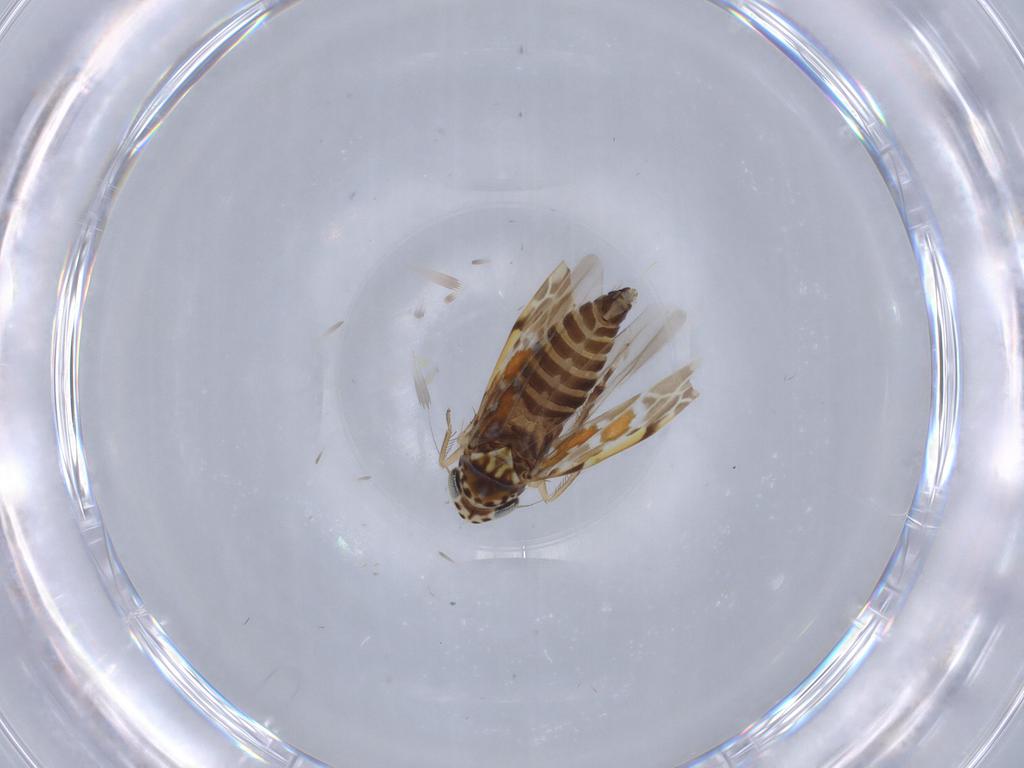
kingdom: Animalia
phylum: Arthropoda
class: Insecta
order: Hemiptera
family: Cicadellidae
